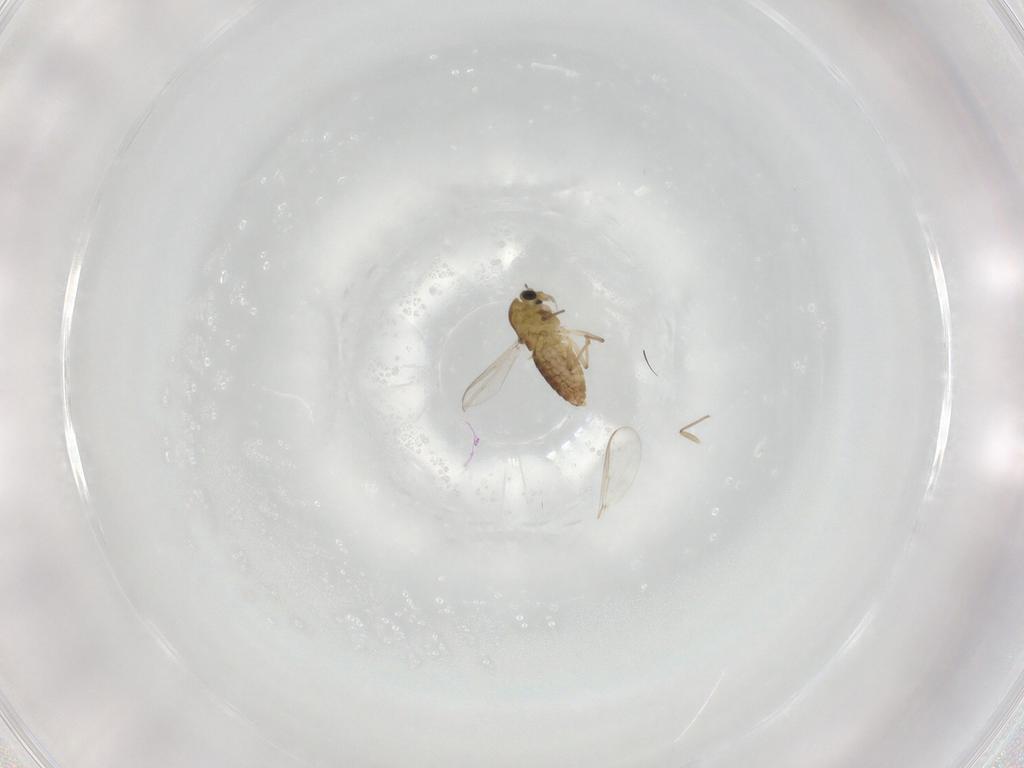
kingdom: Animalia
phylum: Arthropoda
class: Insecta
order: Diptera
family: Chironomidae
